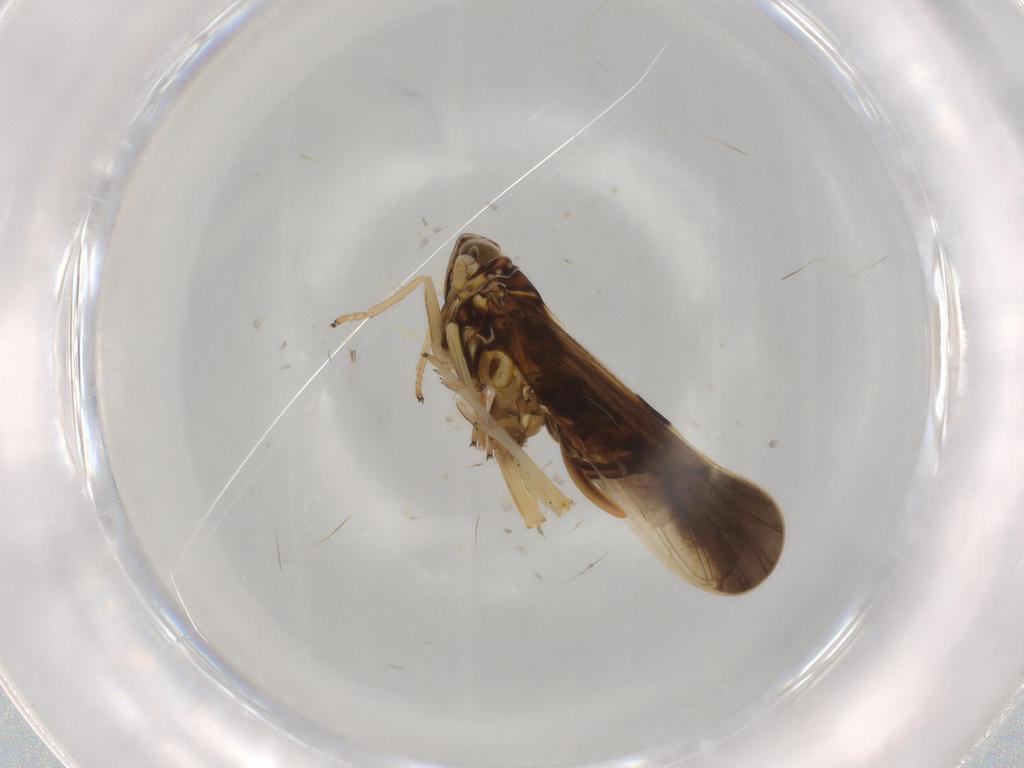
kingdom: Animalia
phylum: Arthropoda
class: Insecta
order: Hemiptera
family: Delphacidae
